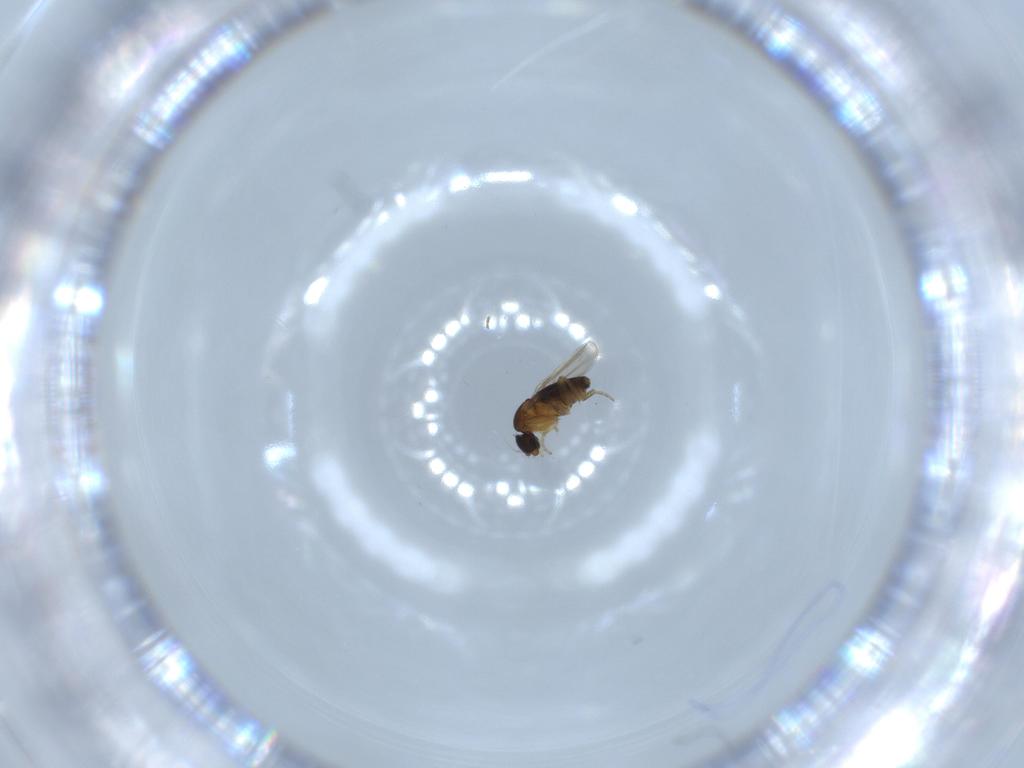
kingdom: Animalia
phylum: Arthropoda
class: Insecta
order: Diptera
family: Phoridae
